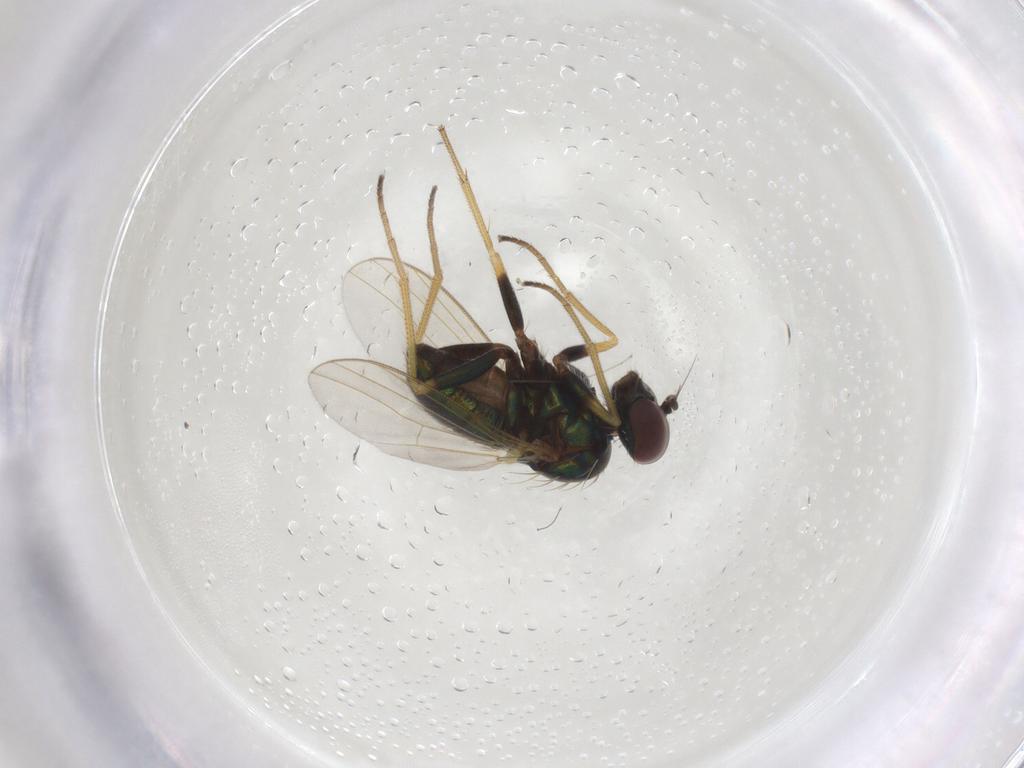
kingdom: Animalia
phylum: Arthropoda
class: Insecta
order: Diptera
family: Dolichopodidae
